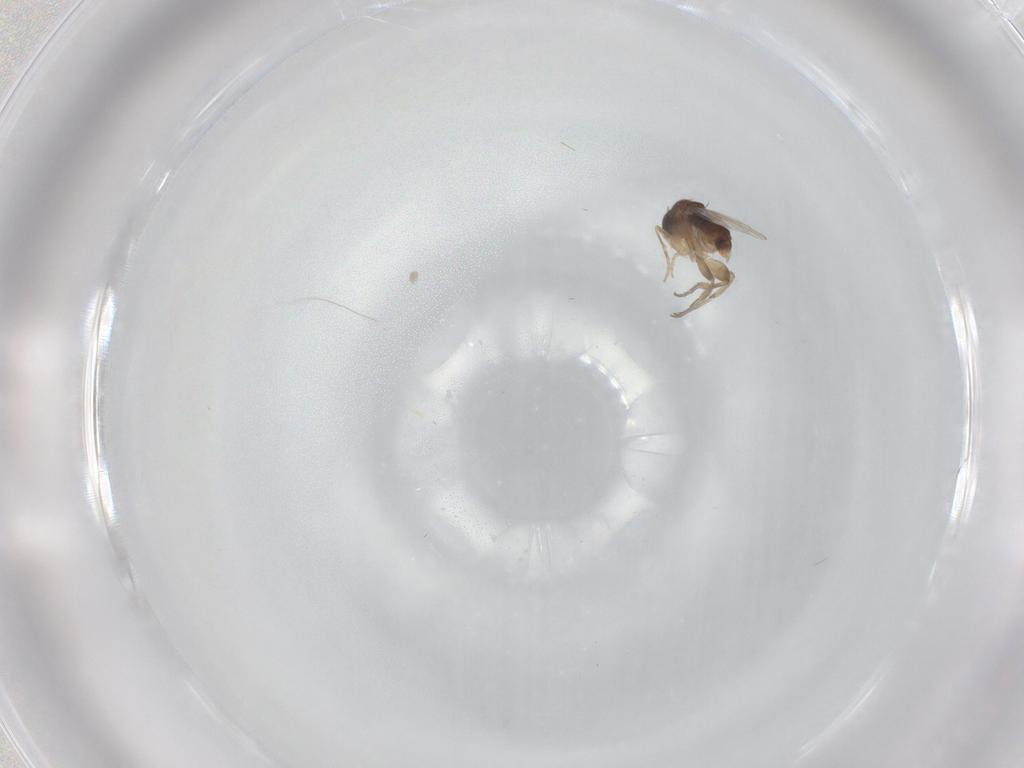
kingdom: Animalia
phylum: Arthropoda
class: Insecta
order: Diptera
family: Phoridae
